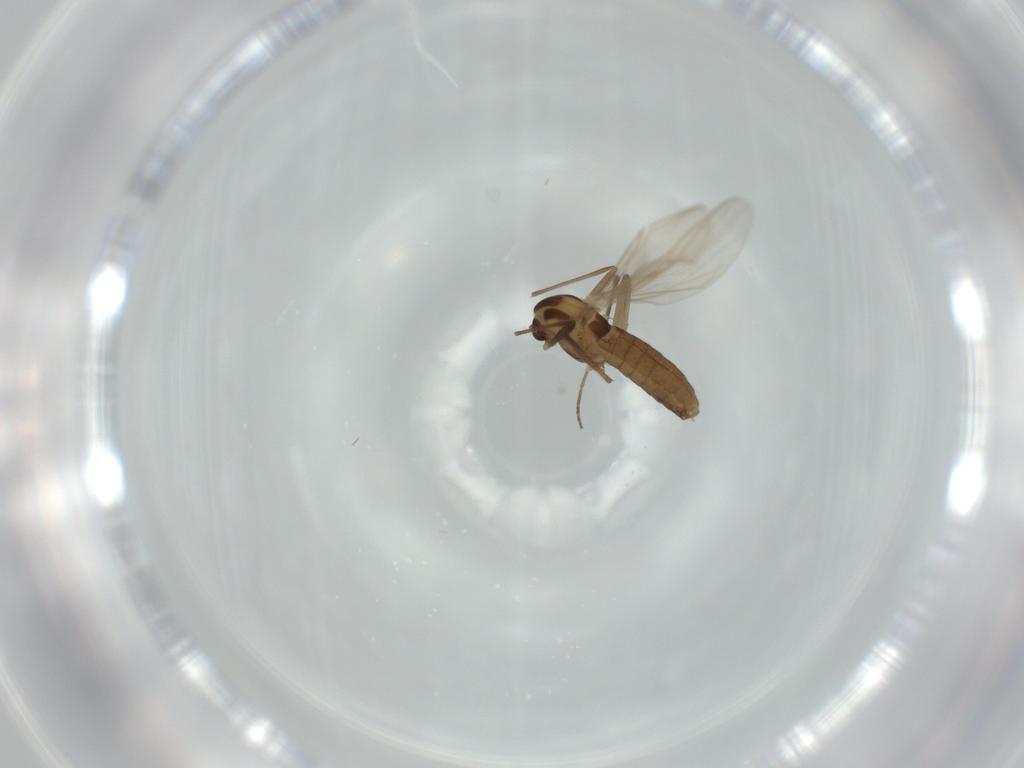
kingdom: Animalia
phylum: Arthropoda
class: Insecta
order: Diptera
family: Chironomidae
